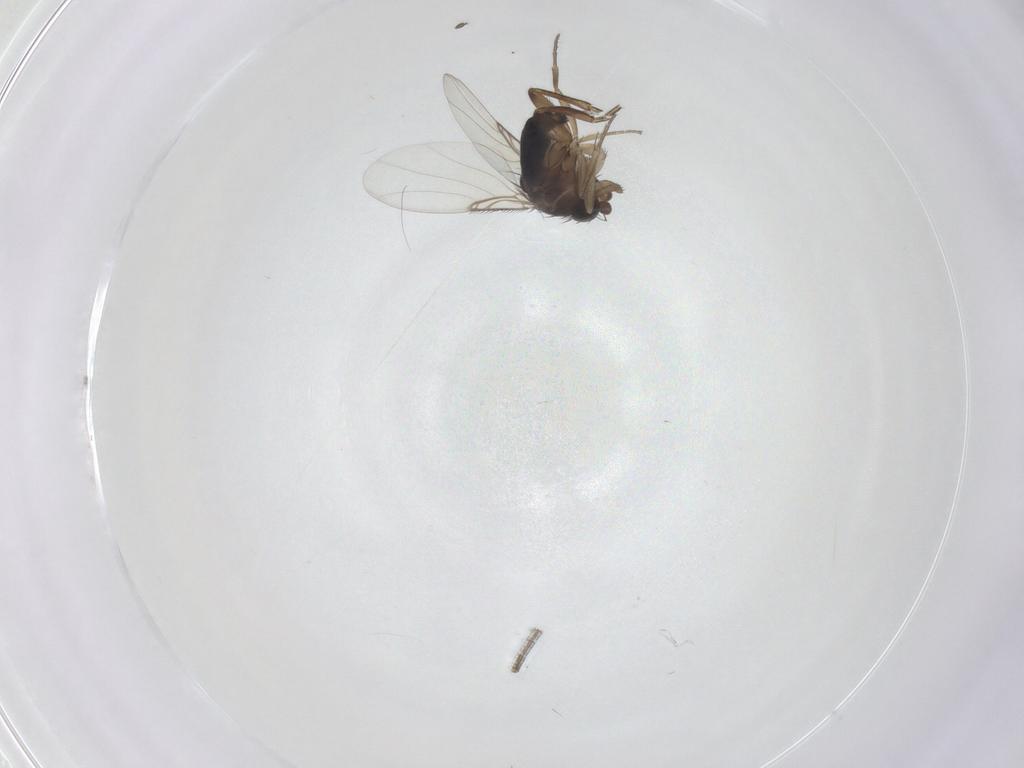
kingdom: Animalia
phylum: Arthropoda
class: Insecta
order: Diptera
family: Phoridae
